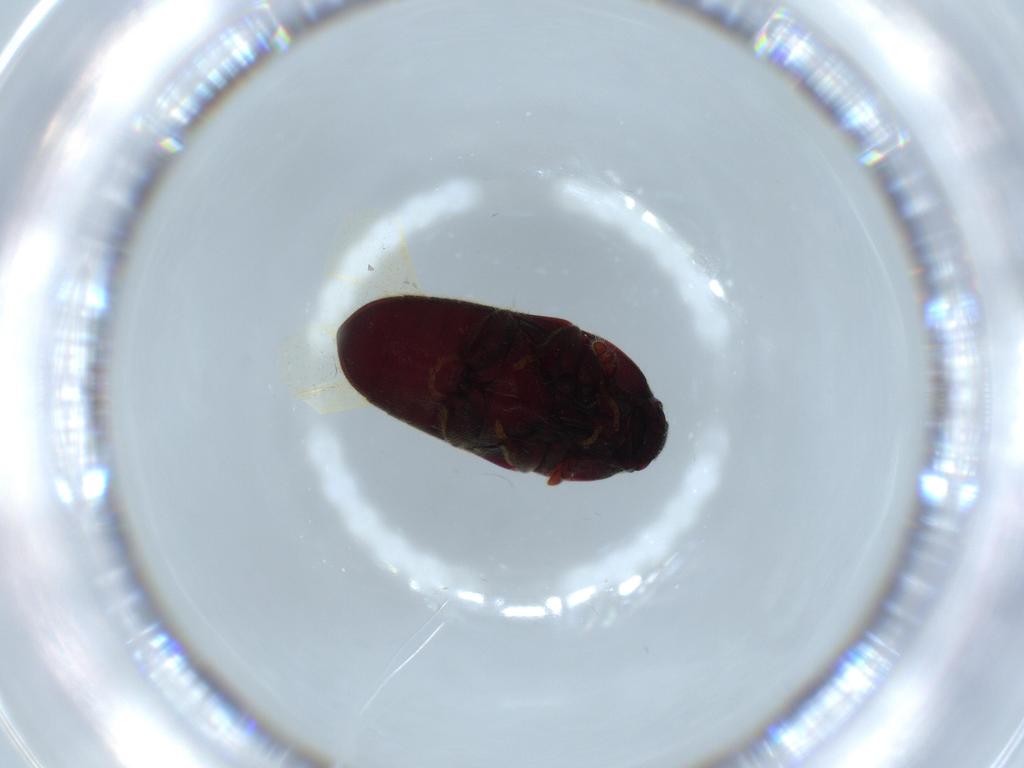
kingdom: Animalia
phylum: Arthropoda
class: Insecta
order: Coleoptera
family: Throscidae
